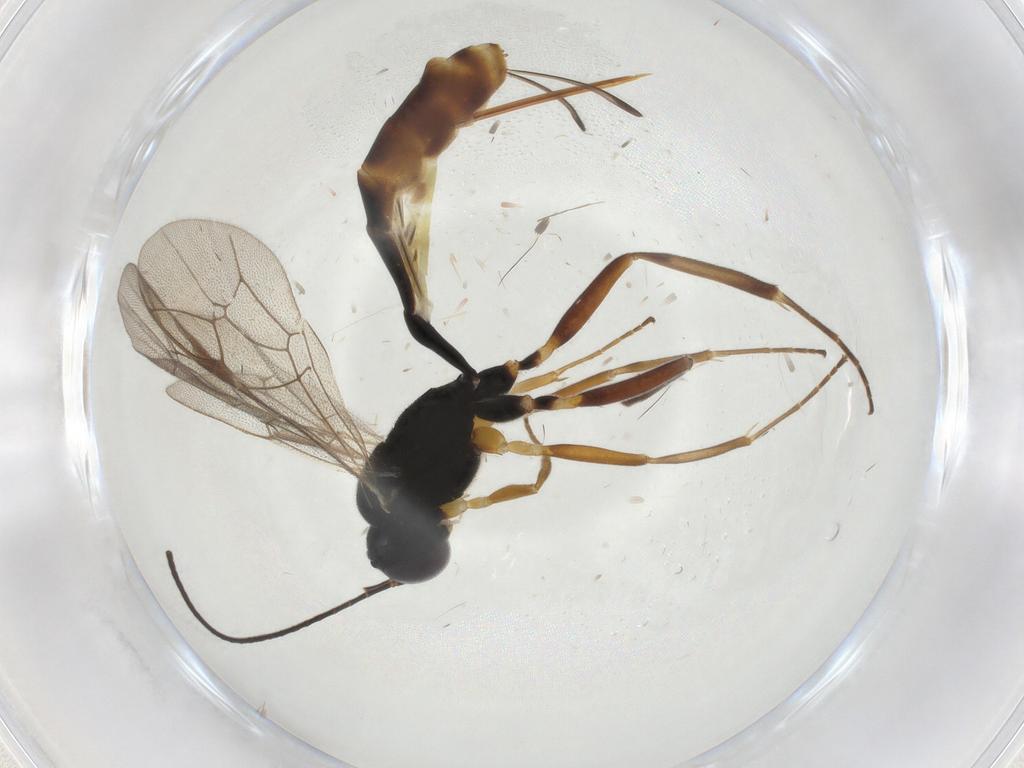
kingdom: Animalia
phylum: Arthropoda
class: Insecta
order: Hymenoptera
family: Ichneumonidae
